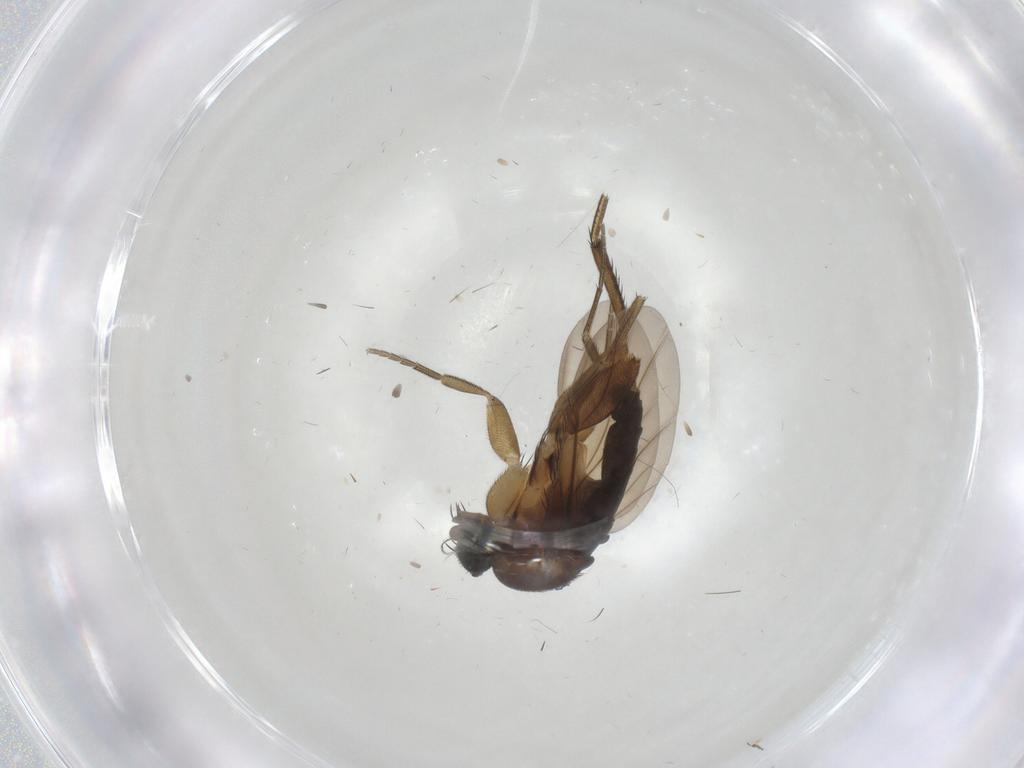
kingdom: Animalia
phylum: Arthropoda
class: Insecta
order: Diptera
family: Phoridae
